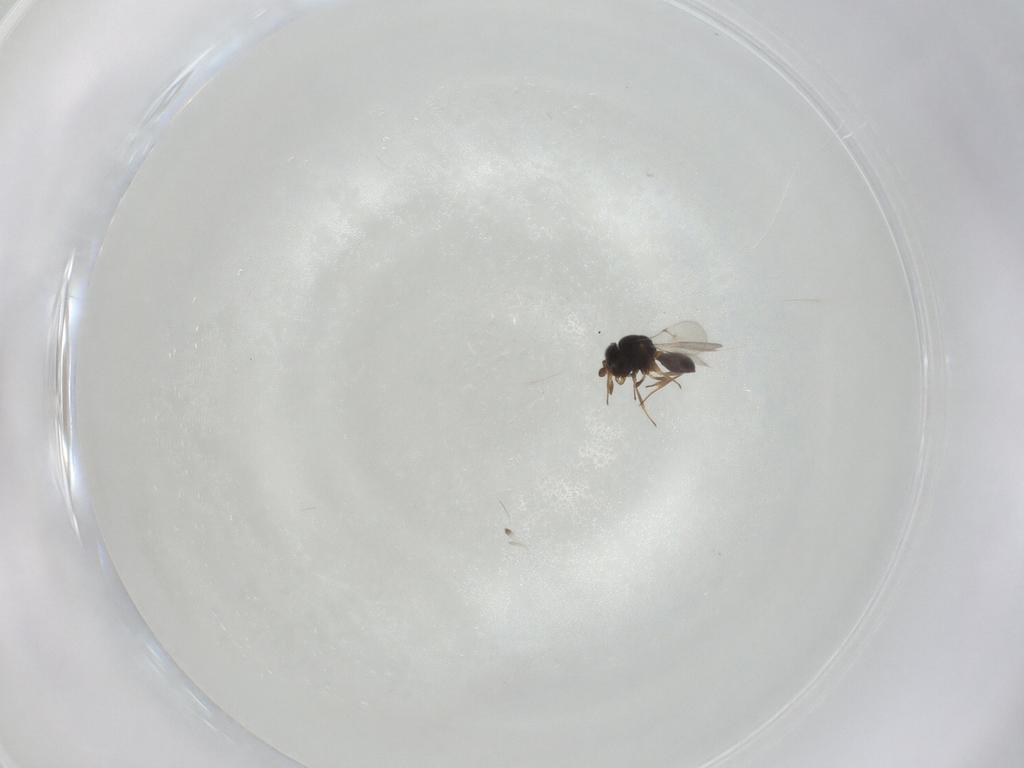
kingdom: Animalia
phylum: Arthropoda
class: Insecta
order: Hymenoptera
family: Scelionidae
